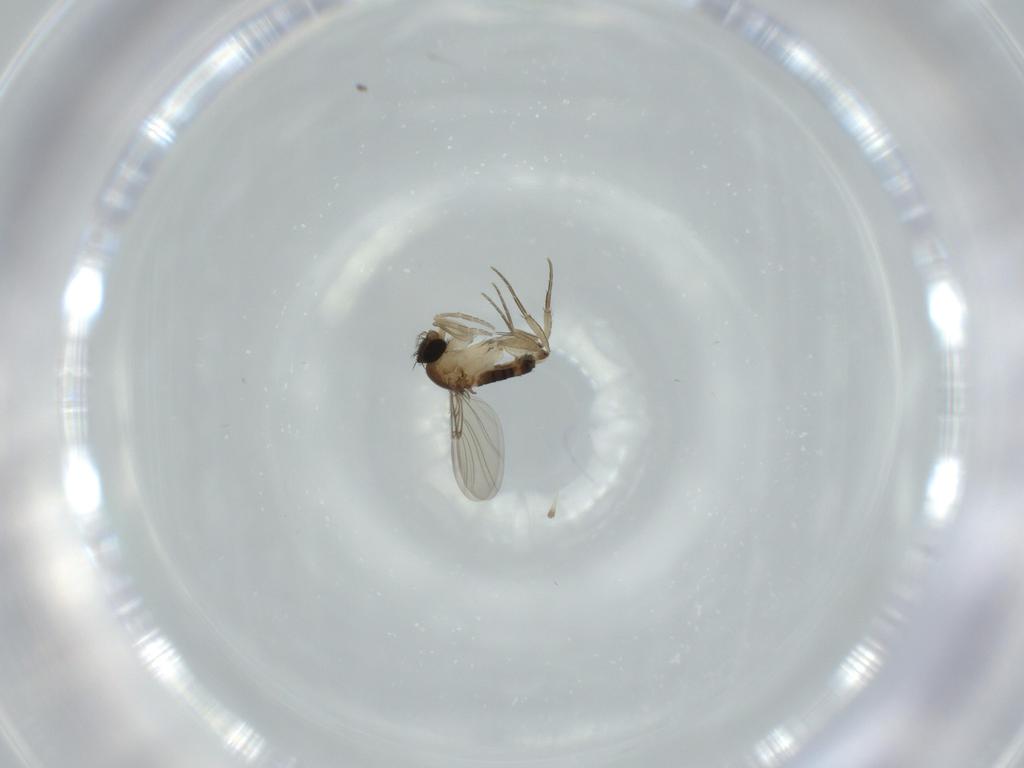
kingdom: Animalia
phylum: Arthropoda
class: Insecta
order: Diptera
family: Phoridae
